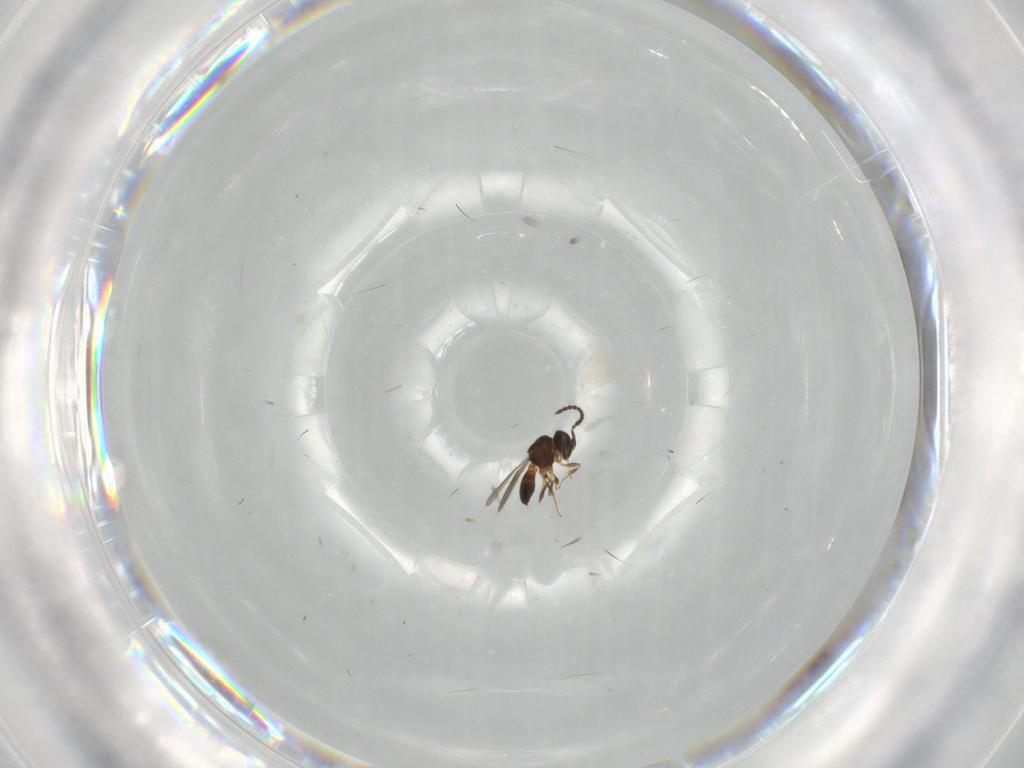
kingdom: Animalia
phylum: Arthropoda
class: Insecta
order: Hymenoptera
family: Scelionidae
